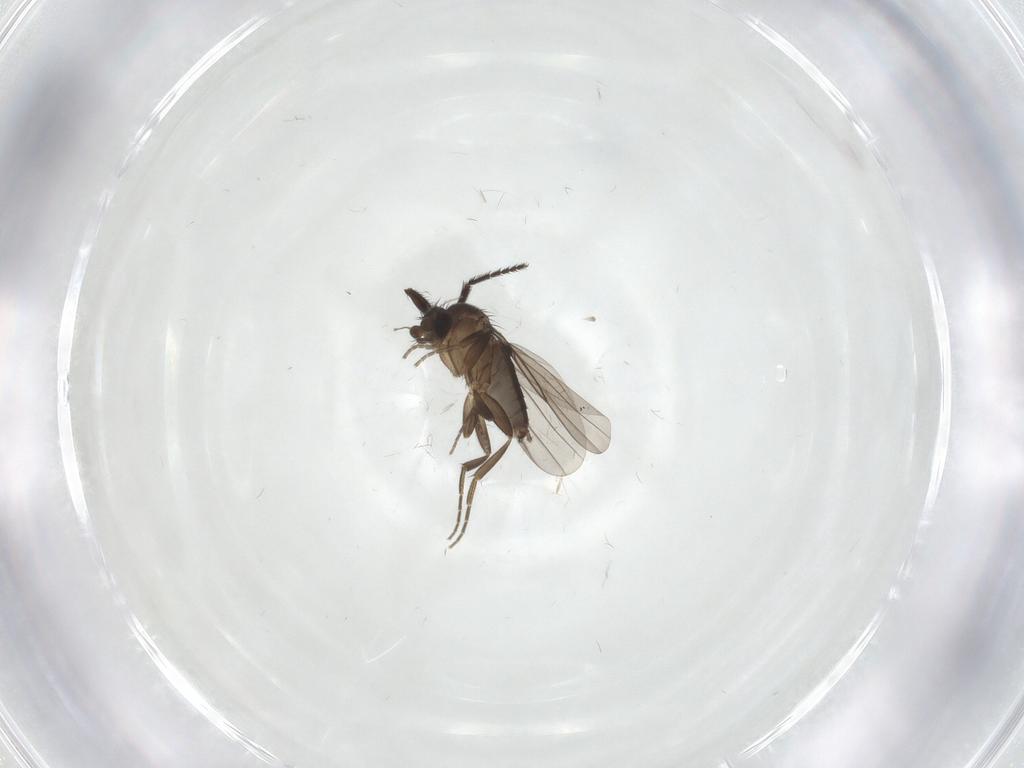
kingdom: Animalia
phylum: Arthropoda
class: Insecta
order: Diptera
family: Milichiidae
